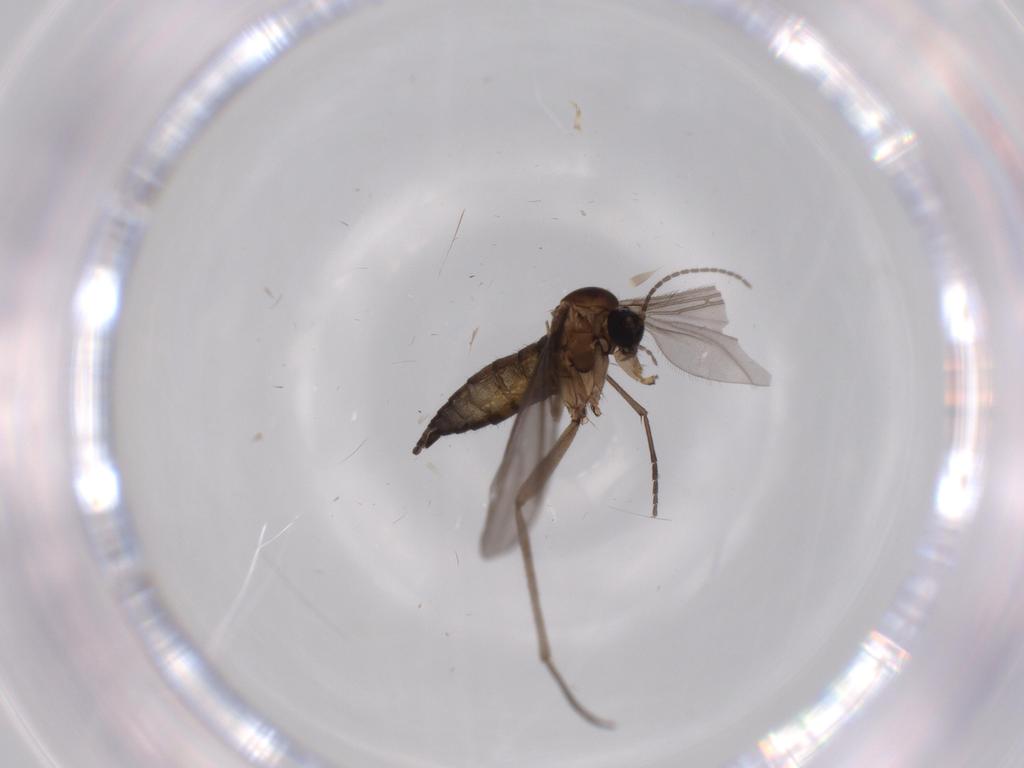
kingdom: Animalia
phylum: Arthropoda
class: Insecta
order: Diptera
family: Sciaridae
